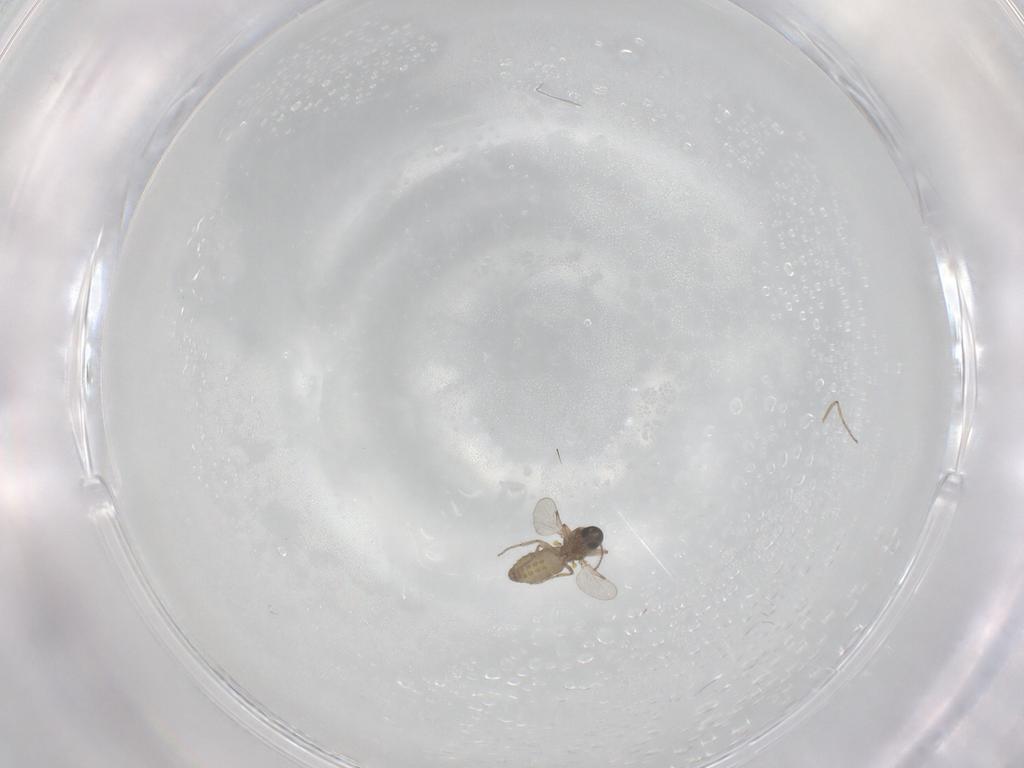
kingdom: Animalia
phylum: Arthropoda
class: Insecta
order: Diptera
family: Ceratopogonidae
